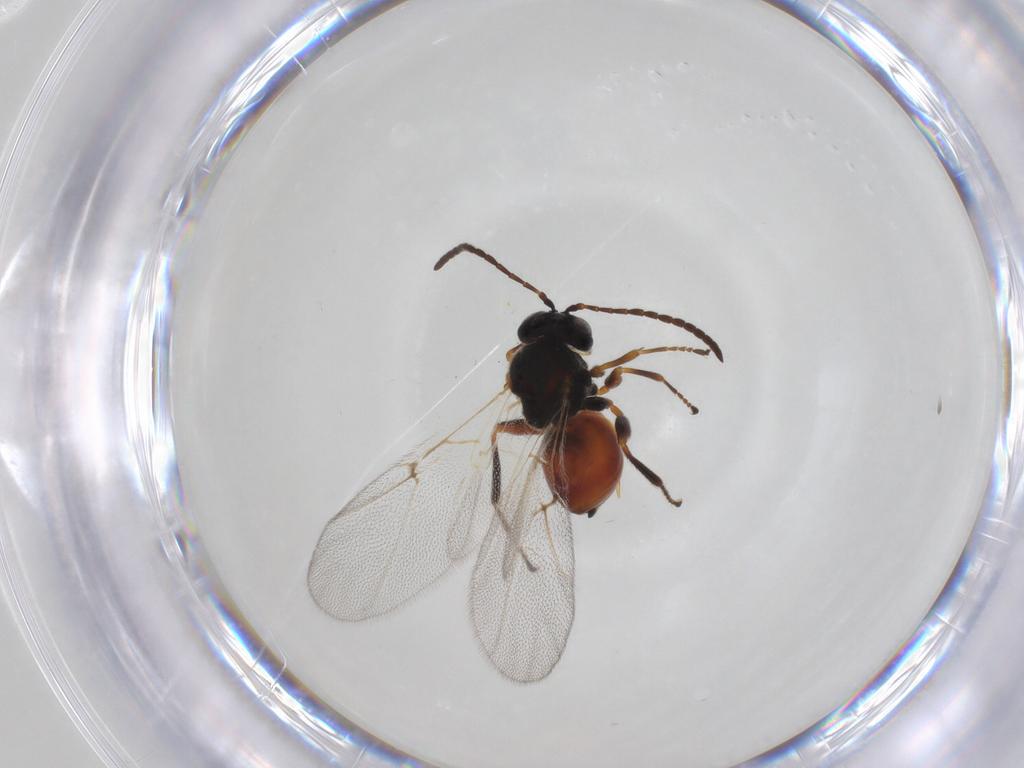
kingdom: Animalia
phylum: Arthropoda
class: Insecta
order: Hymenoptera
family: Cynipidae
